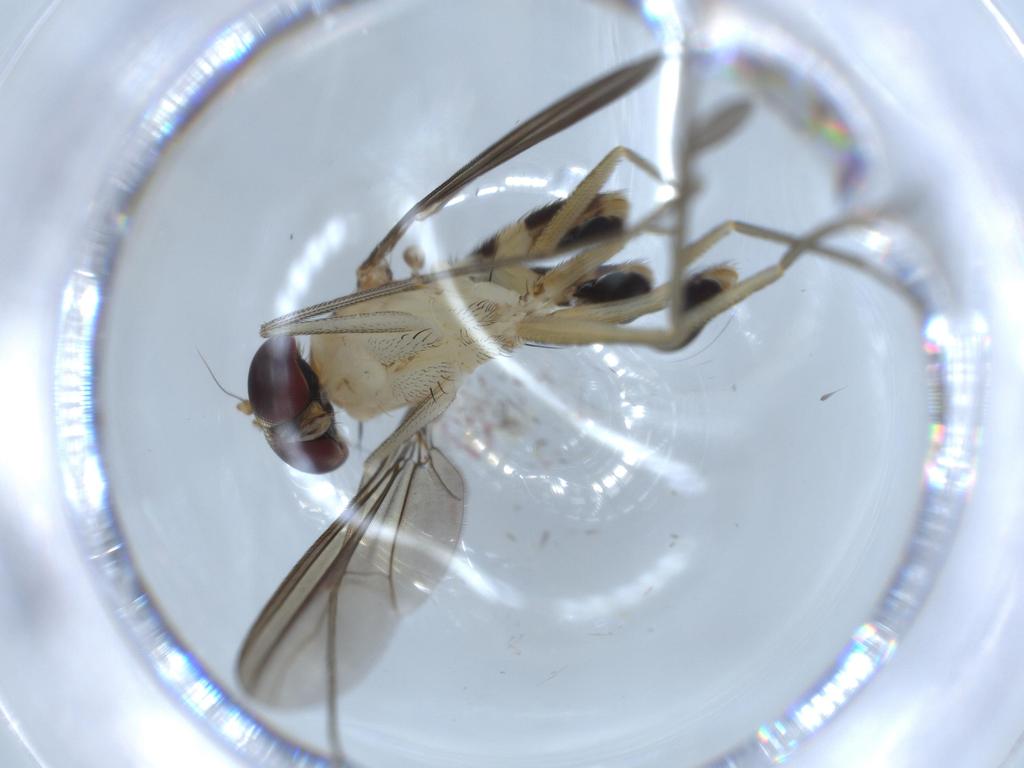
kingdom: Animalia
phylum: Arthropoda
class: Insecta
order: Diptera
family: Dolichopodidae
